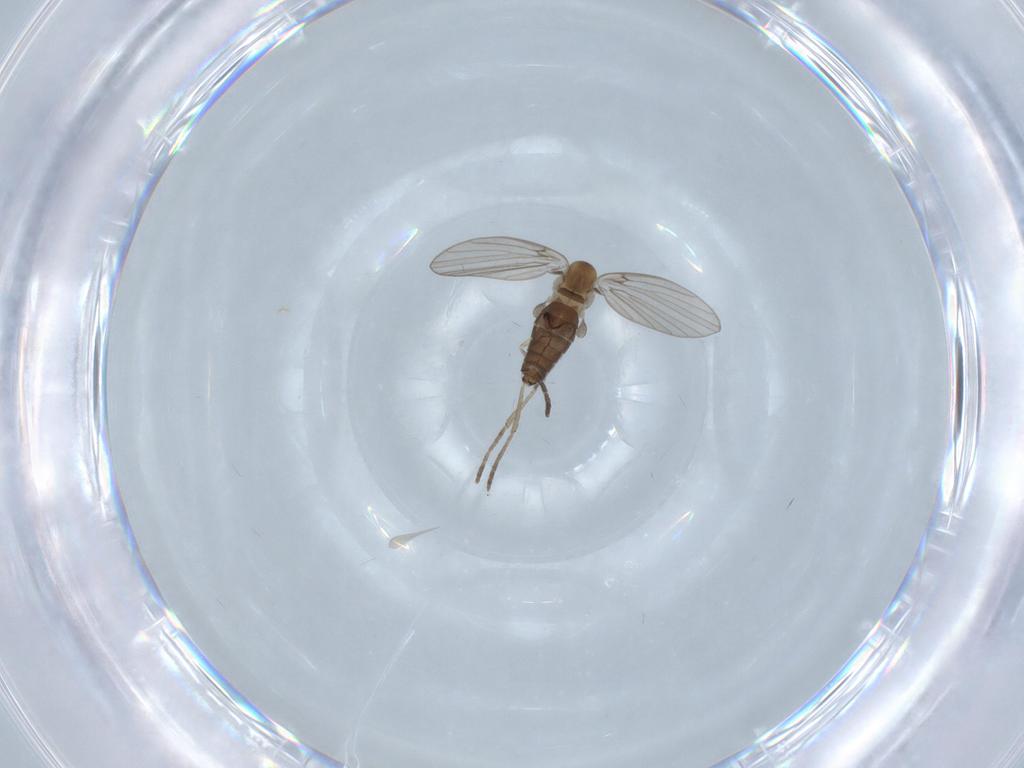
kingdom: Animalia
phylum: Arthropoda
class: Insecta
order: Diptera
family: Psychodidae
